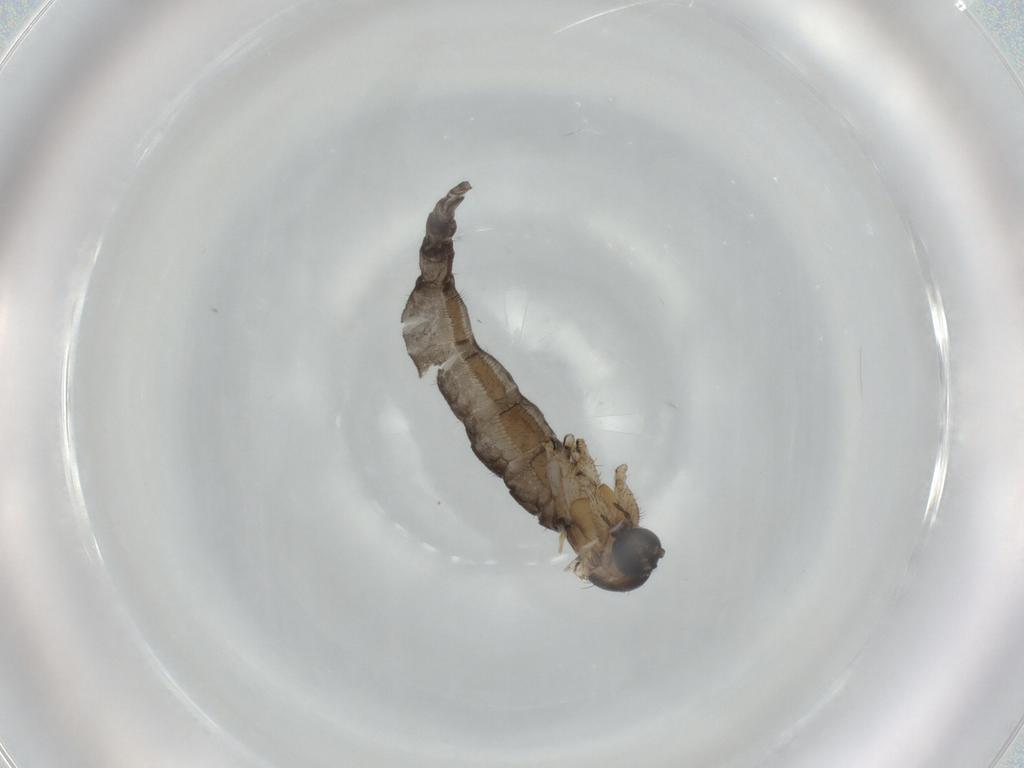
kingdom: Animalia
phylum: Arthropoda
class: Insecta
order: Diptera
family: Sciaridae
